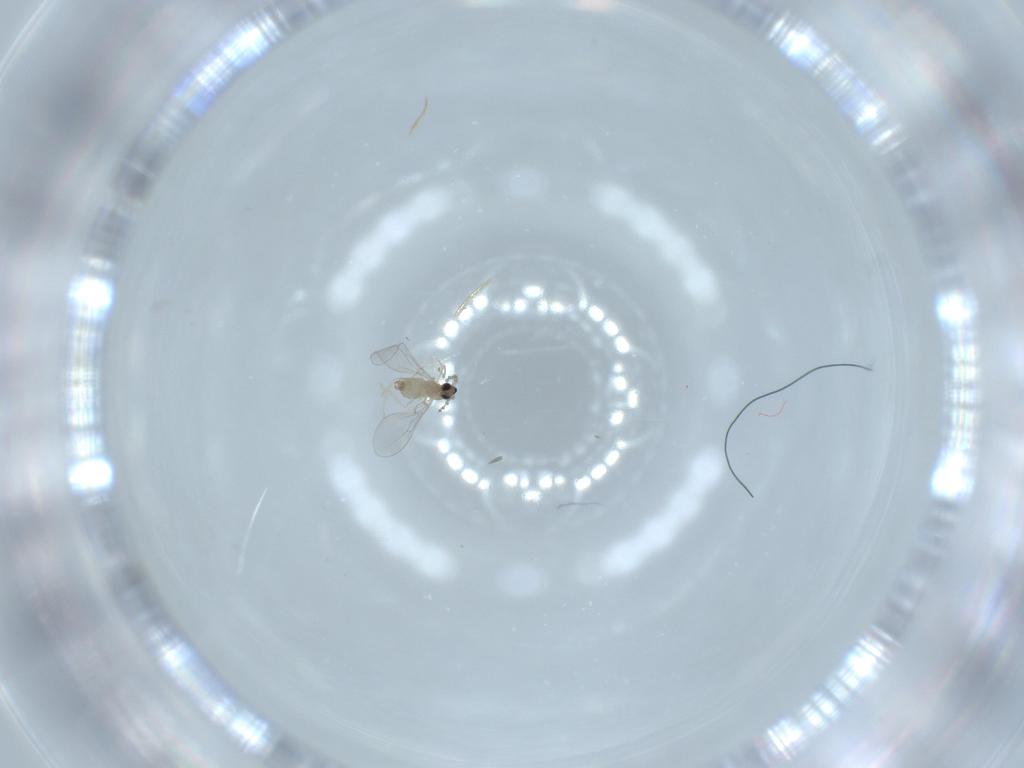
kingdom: Animalia
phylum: Arthropoda
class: Insecta
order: Diptera
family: Cecidomyiidae
